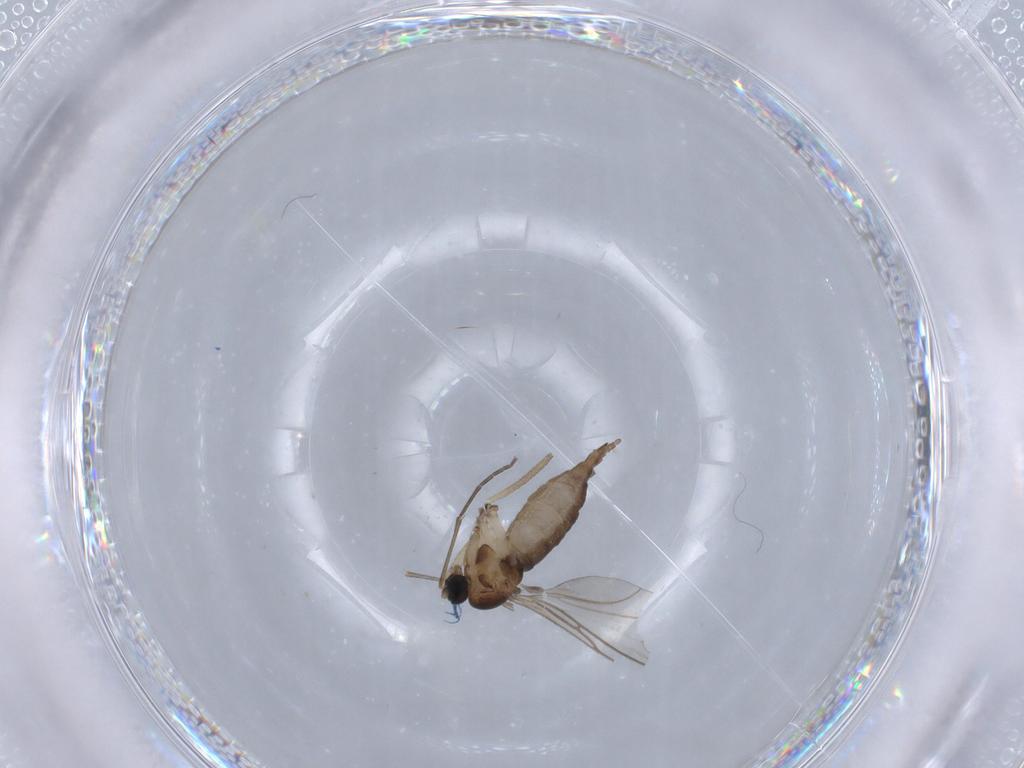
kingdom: Animalia
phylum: Arthropoda
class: Insecta
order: Diptera
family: Sciaridae
